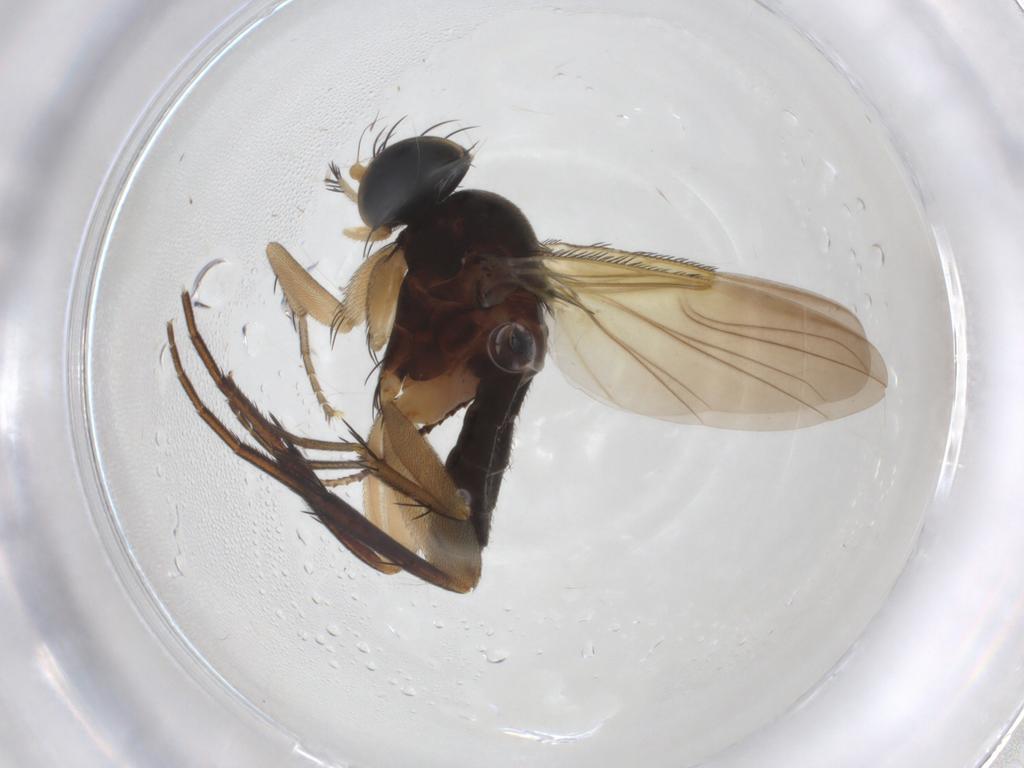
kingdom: Animalia
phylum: Arthropoda
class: Insecta
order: Diptera
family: Phoridae
